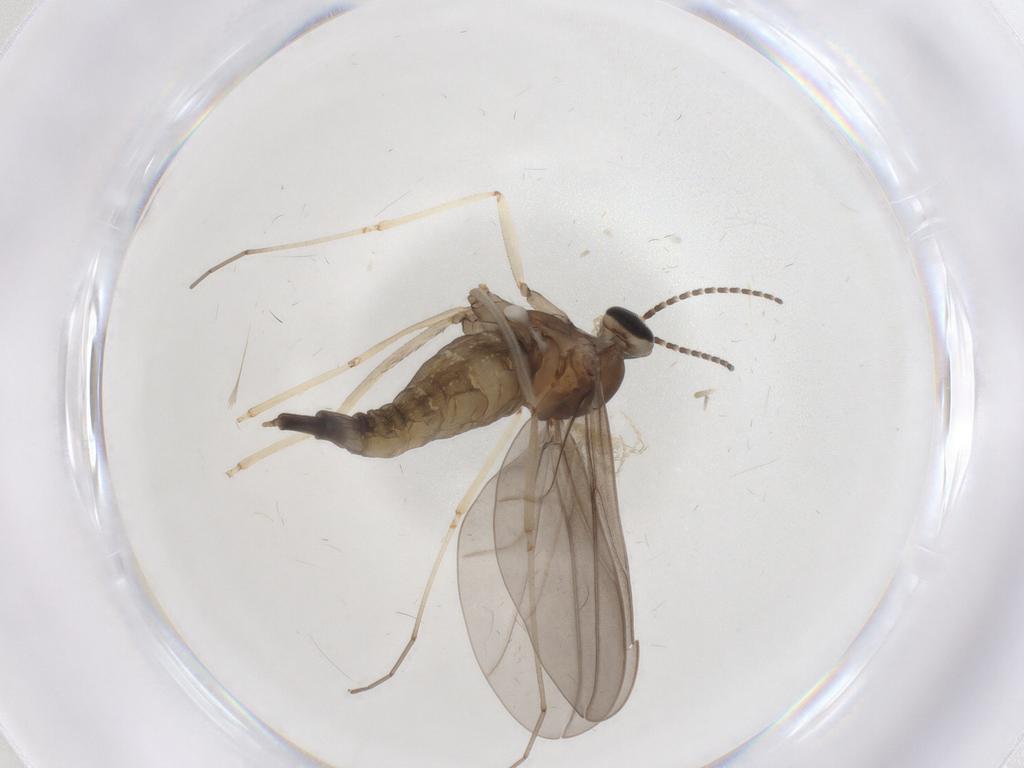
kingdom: Animalia
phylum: Arthropoda
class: Insecta
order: Diptera
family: Cecidomyiidae
